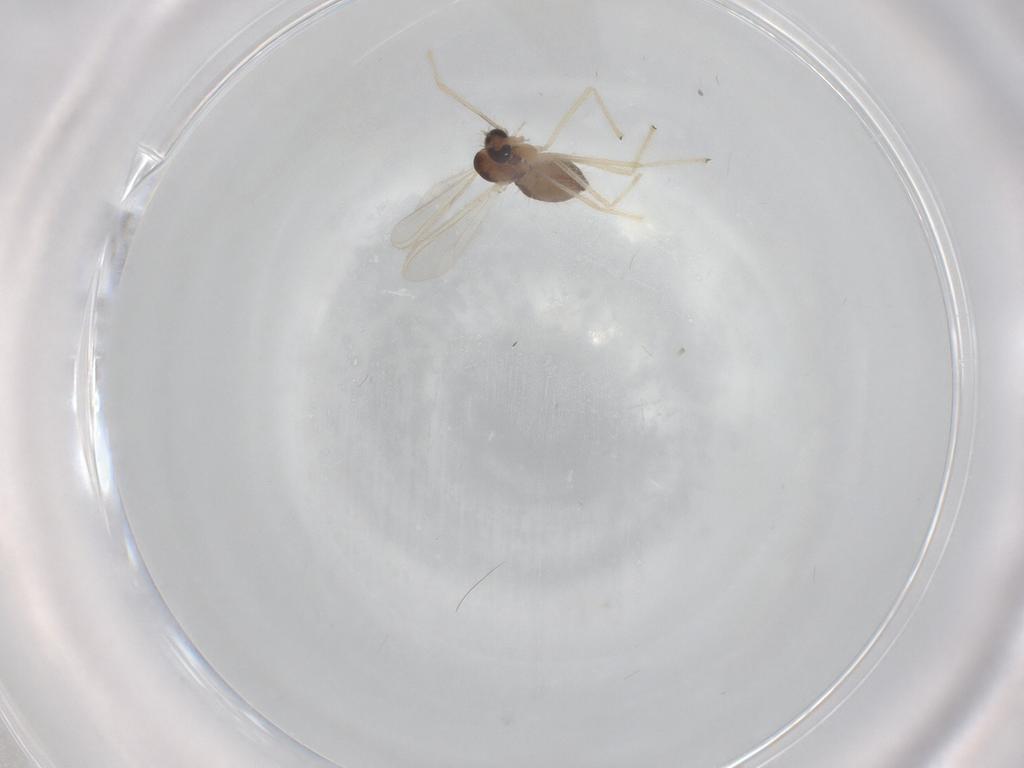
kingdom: Animalia
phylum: Arthropoda
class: Insecta
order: Diptera
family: Chironomidae
